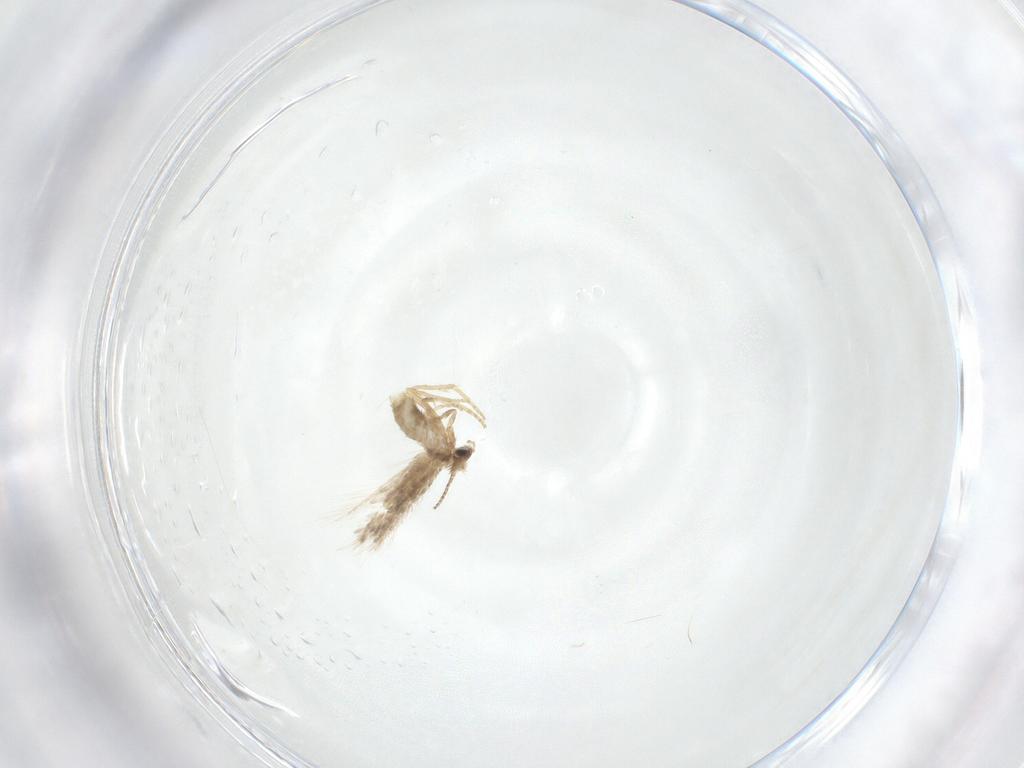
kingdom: Animalia
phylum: Arthropoda
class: Insecta
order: Lepidoptera
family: Nepticulidae
